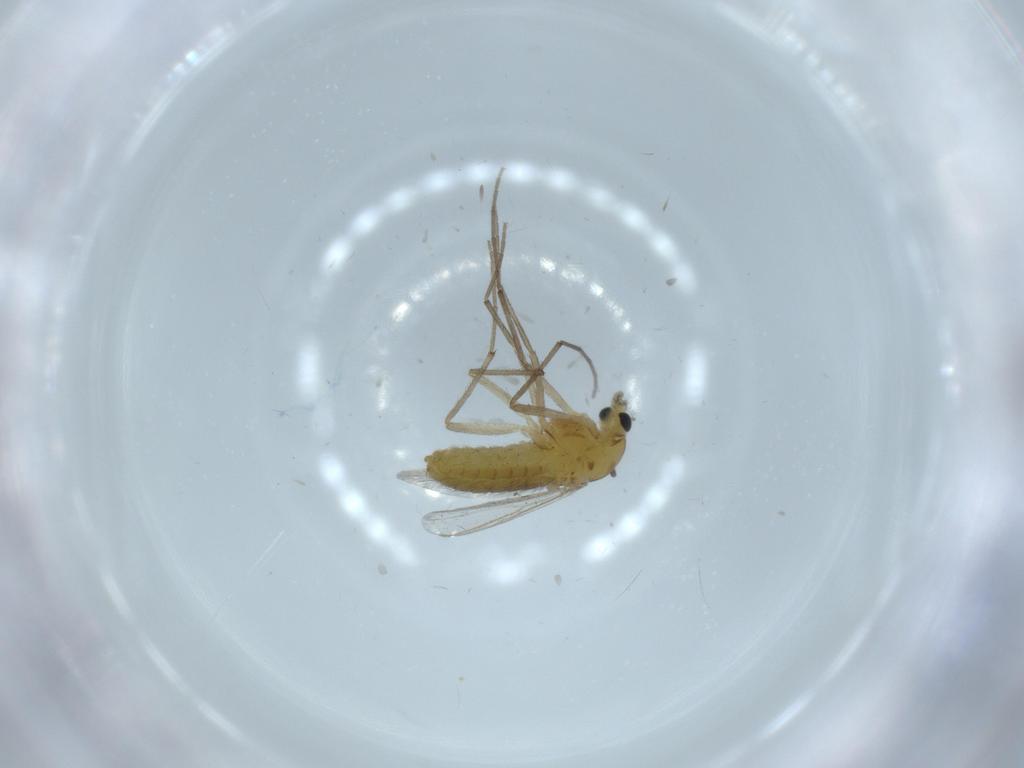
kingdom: Animalia
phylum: Arthropoda
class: Insecta
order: Diptera
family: Chironomidae
